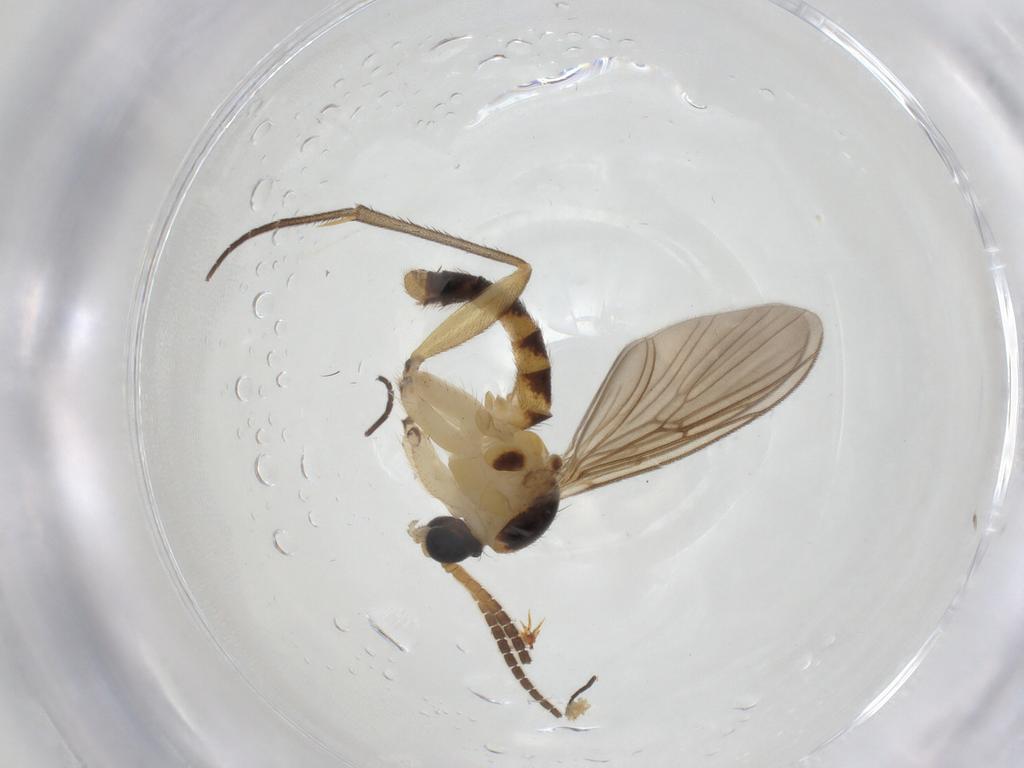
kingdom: Animalia
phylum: Arthropoda
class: Insecta
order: Diptera
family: Mycetophilidae
